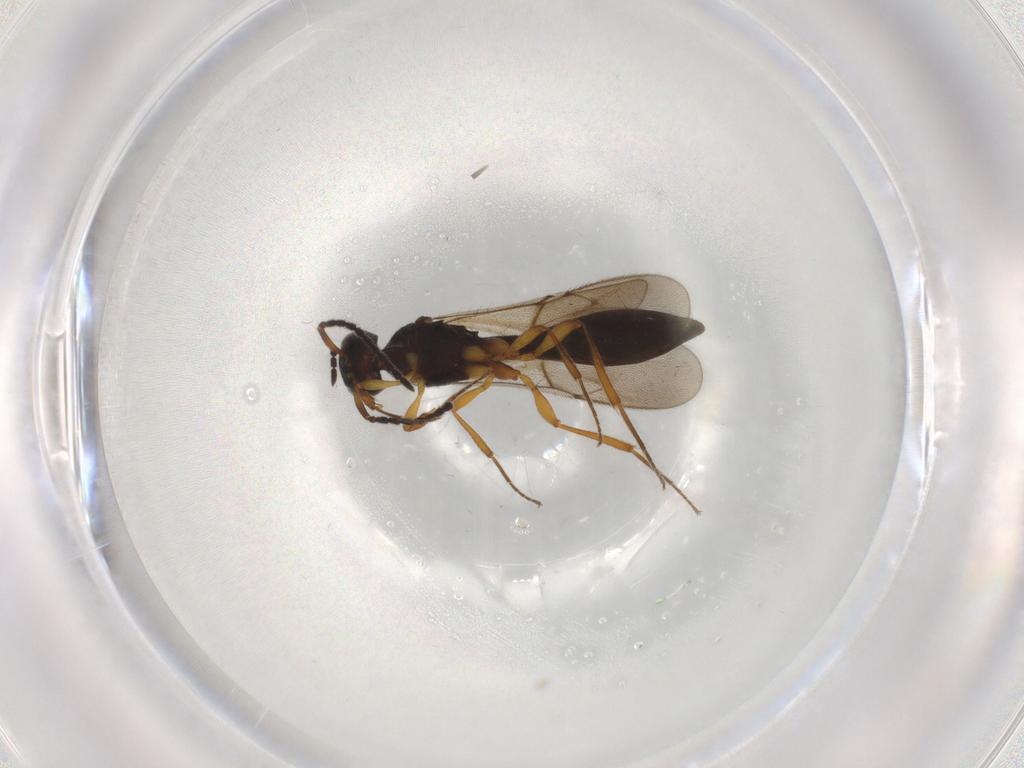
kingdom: Animalia
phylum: Arthropoda
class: Insecta
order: Hymenoptera
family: Scelionidae
